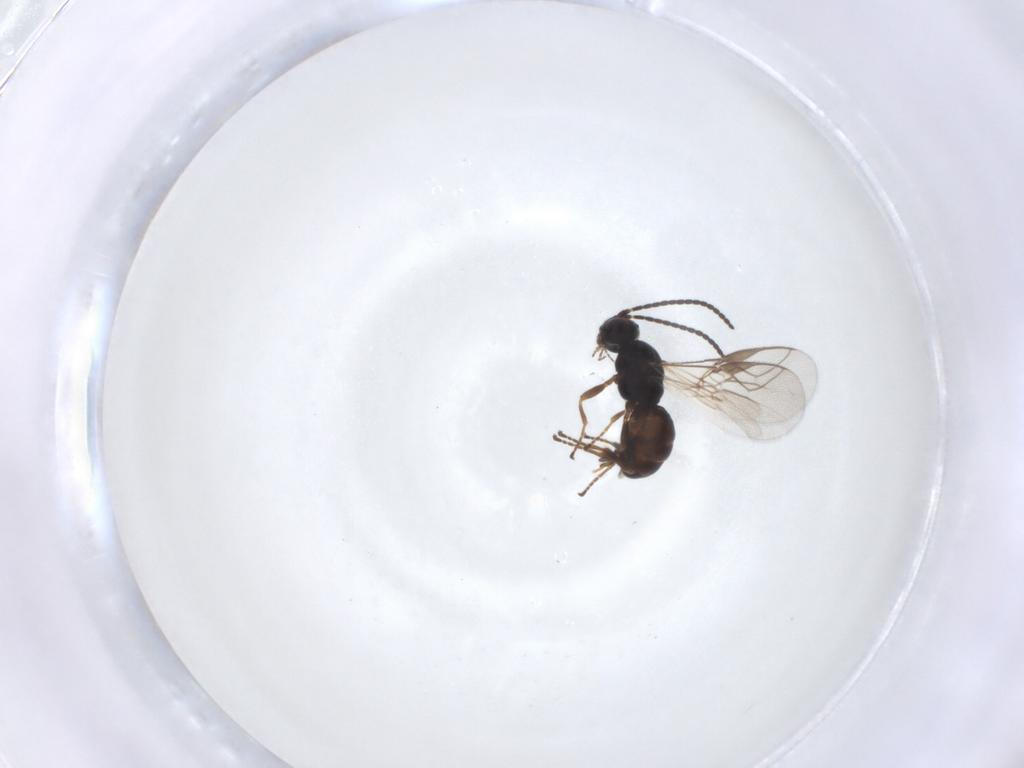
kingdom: Animalia
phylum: Arthropoda
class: Insecta
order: Hymenoptera
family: Braconidae
